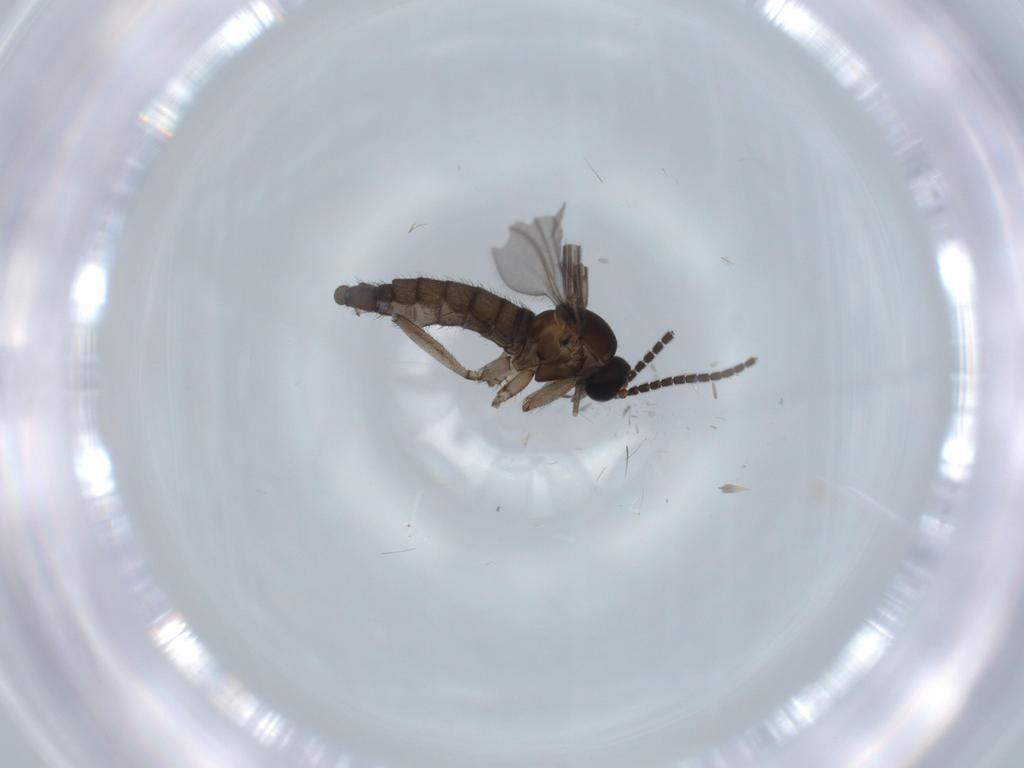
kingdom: Animalia
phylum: Arthropoda
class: Insecta
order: Diptera
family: Sciaridae
